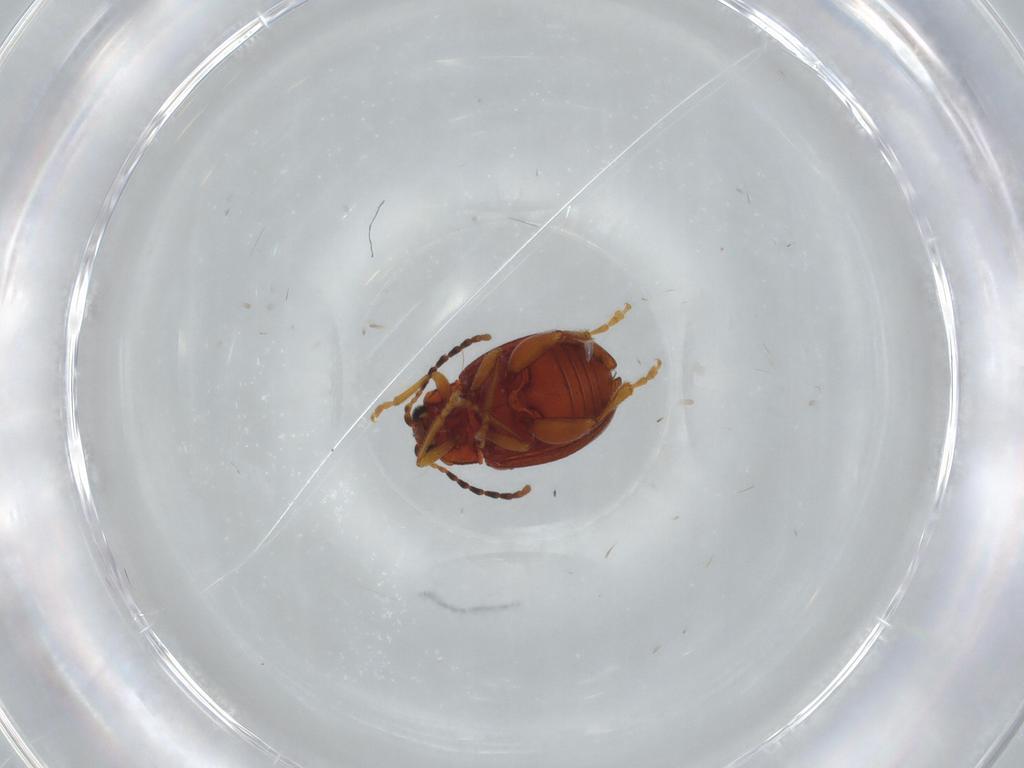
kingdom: Animalia
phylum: Arthropoda
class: Insecta
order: Coleoptera
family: Chrysomelidae
